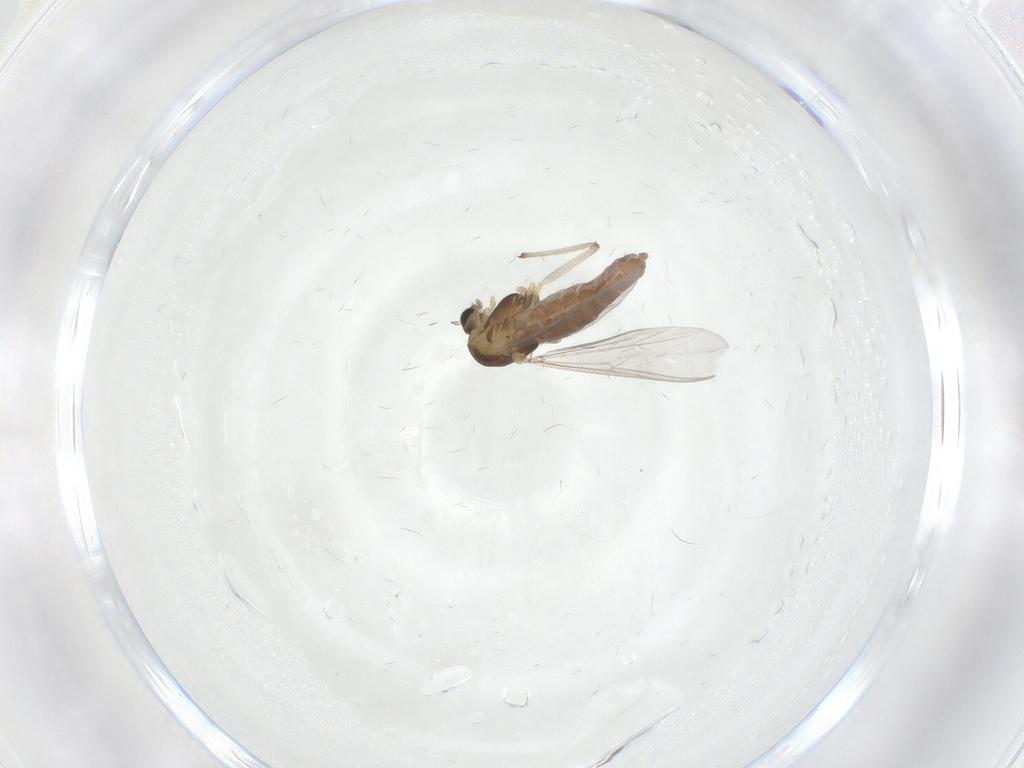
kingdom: Animalia
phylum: Arthropoda
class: Insecta
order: Diptera
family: Chironomidae
